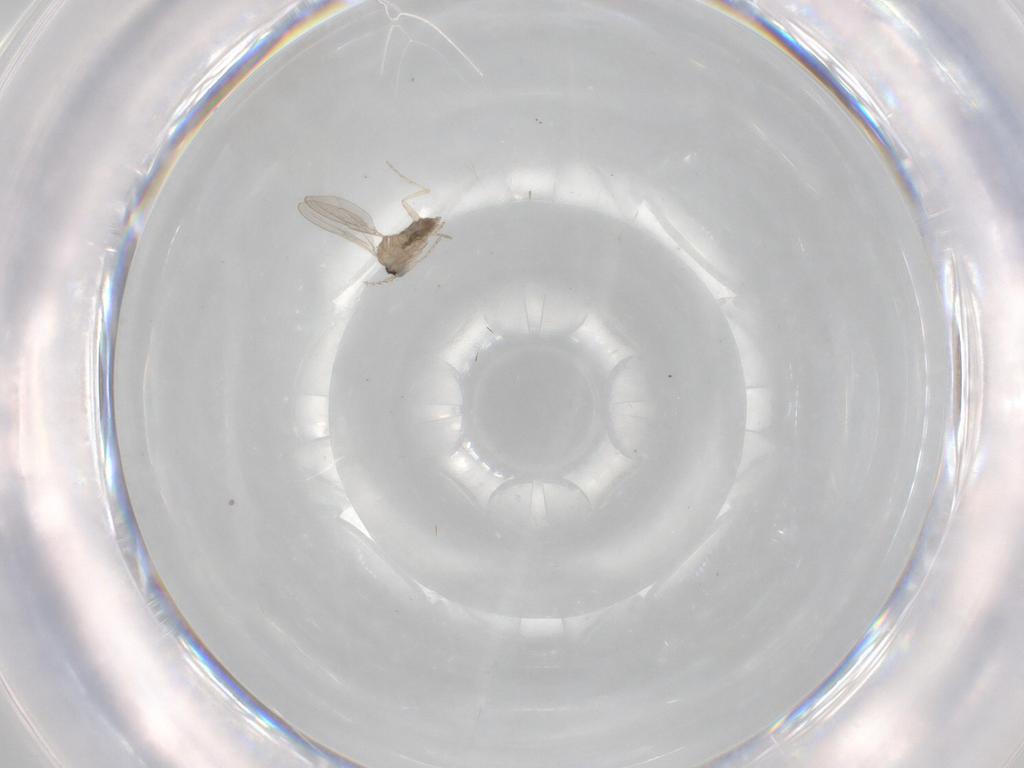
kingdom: Animalia
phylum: Arthropoda
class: Insecta
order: Diptera
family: Cecidomyiidae
